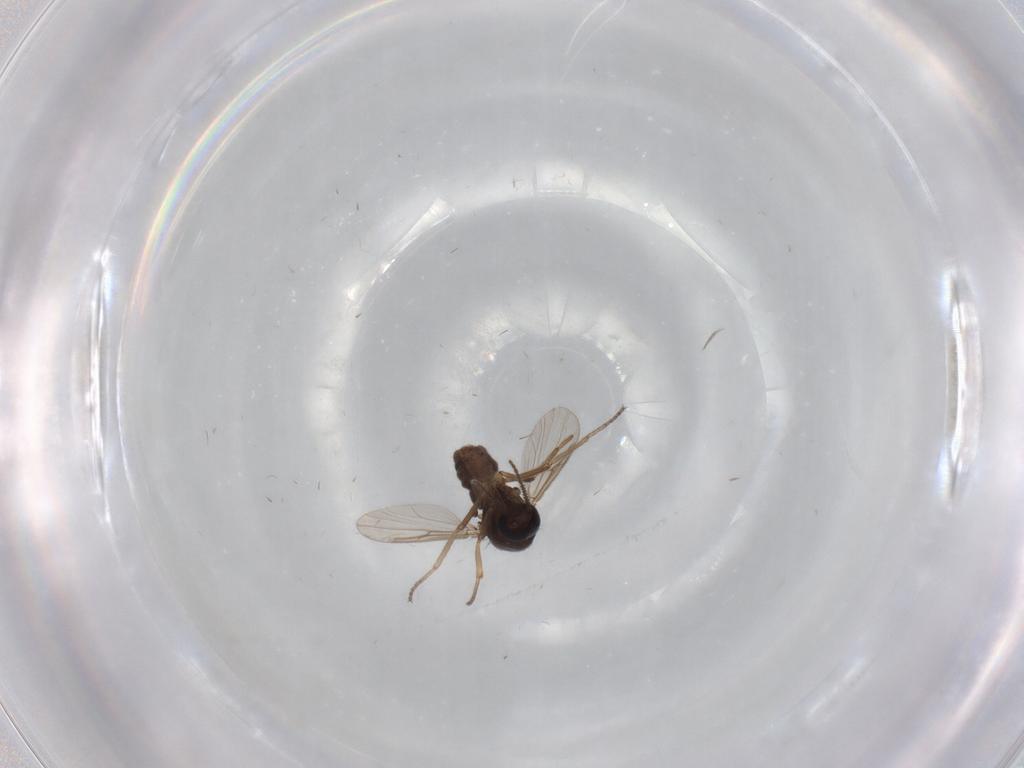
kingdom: Animalia
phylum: Arthropoda
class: Insecta
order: Diptera
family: Ceratopogonidae
